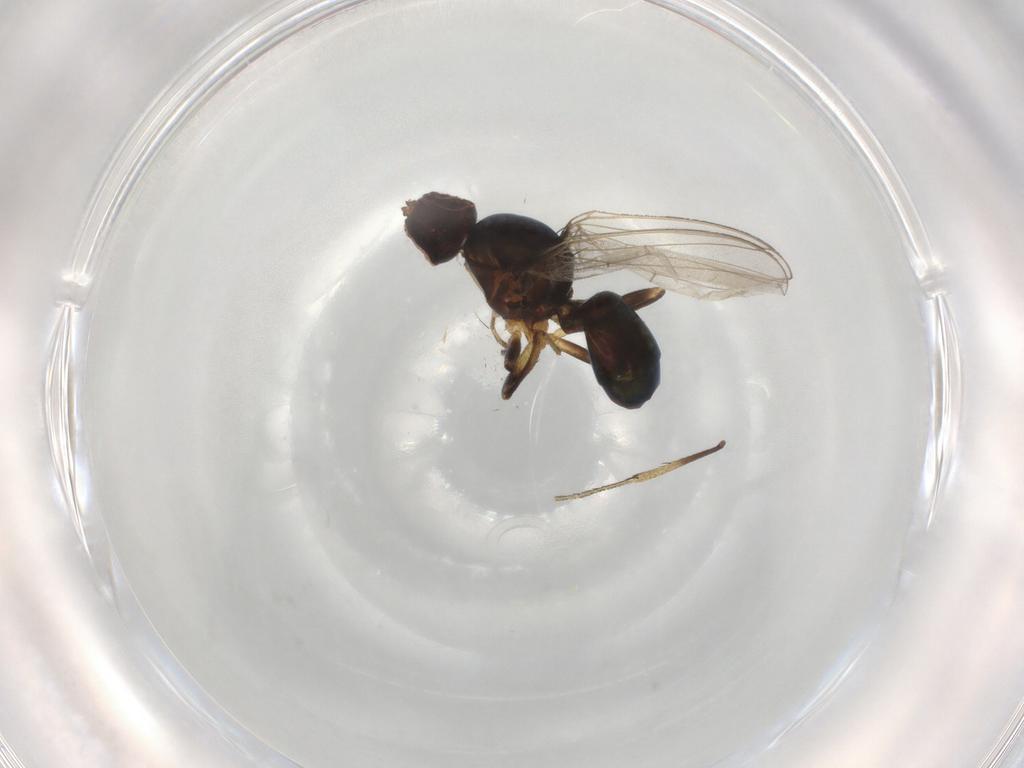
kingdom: Animalia
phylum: Arthropoda
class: Insecta
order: Diptera
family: Sepsidae
